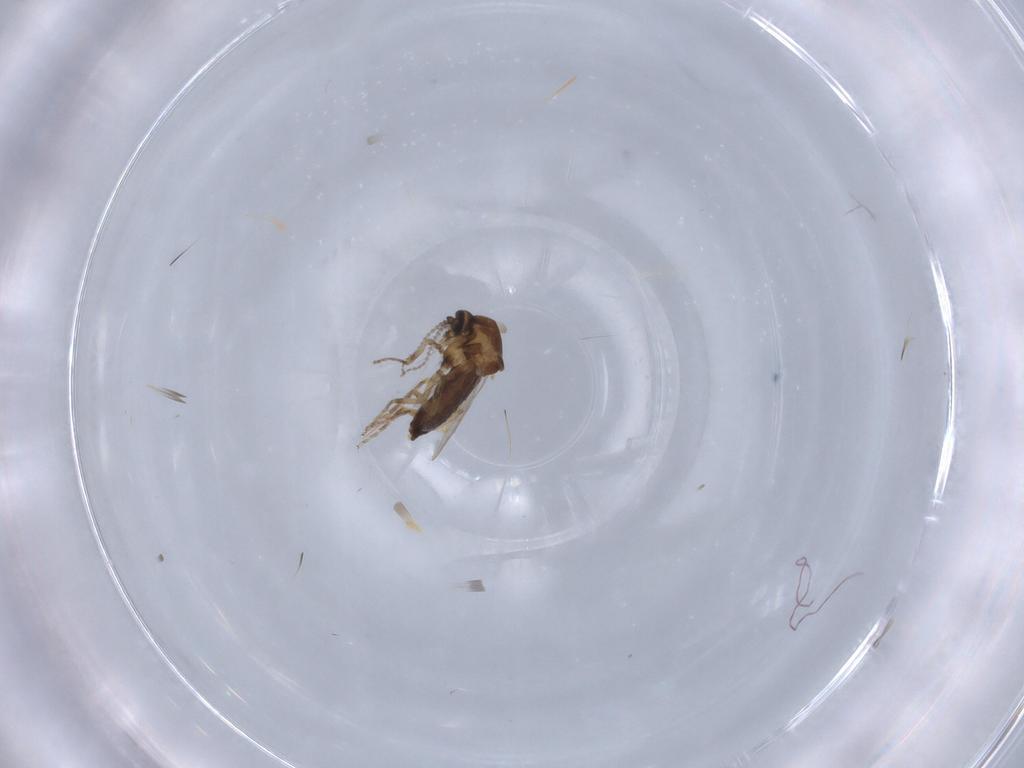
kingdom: Animalia
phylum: Arthropoda
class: Insecta
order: Diptera
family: Ceratopogonidae
